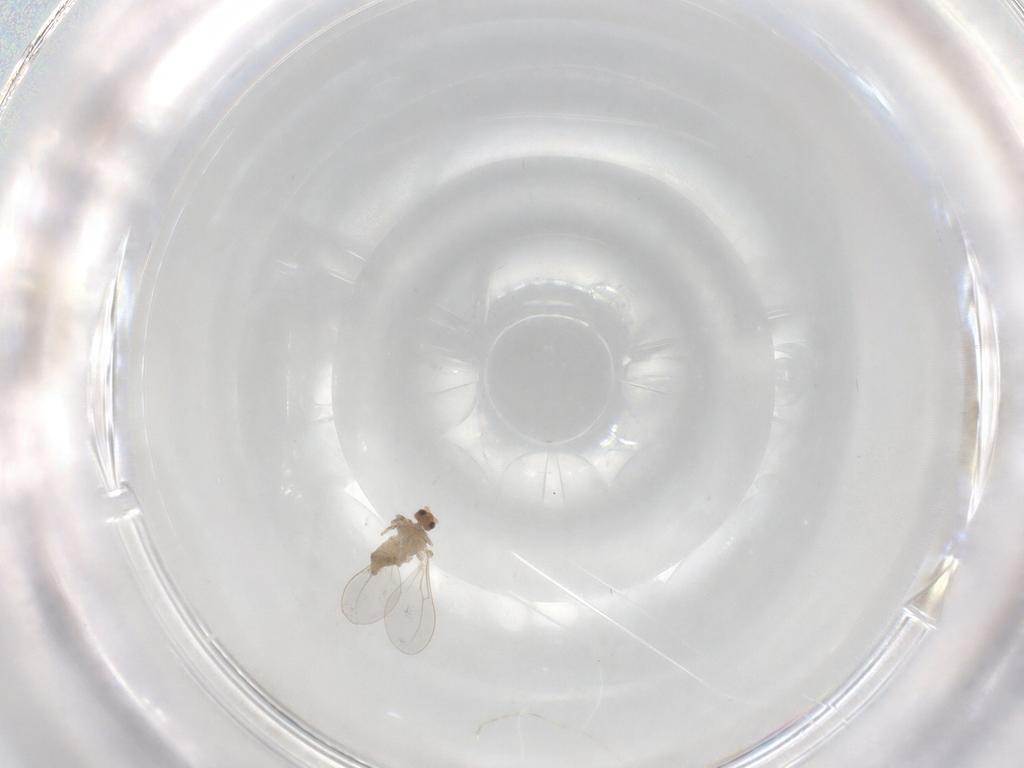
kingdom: Animalia
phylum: Arthropoda
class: Insecta
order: Diptera
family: Cecidomyiidae
